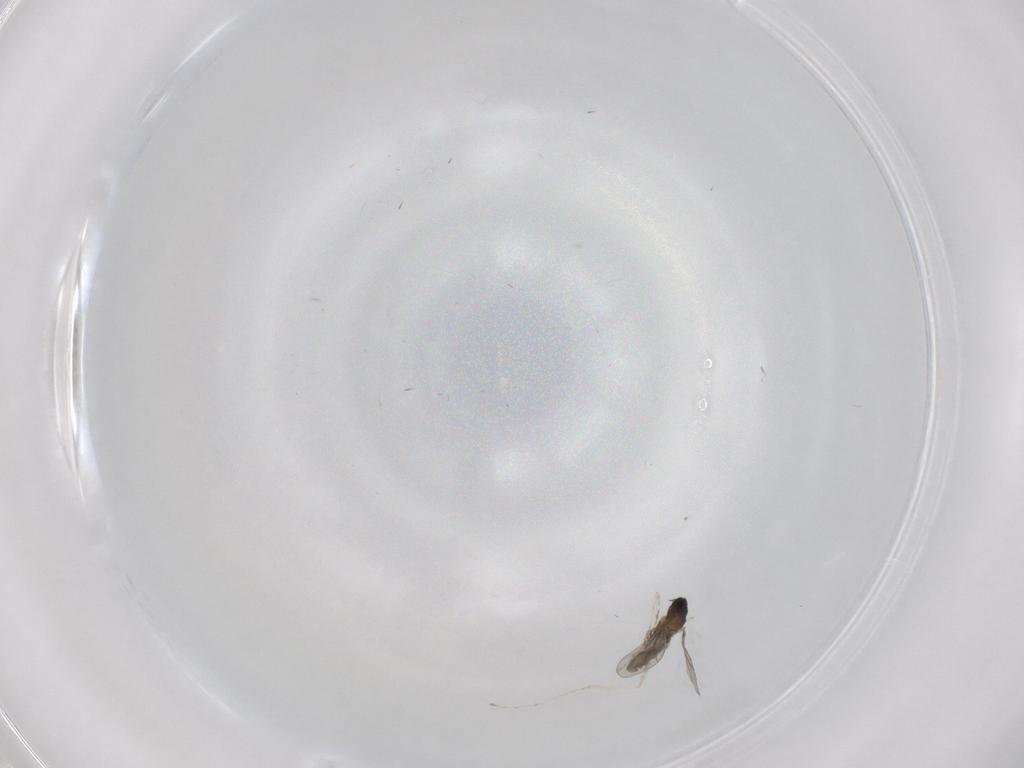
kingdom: Animalia
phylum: Arthropoda
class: Insecta
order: Diptera
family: Cecidomyiidae
